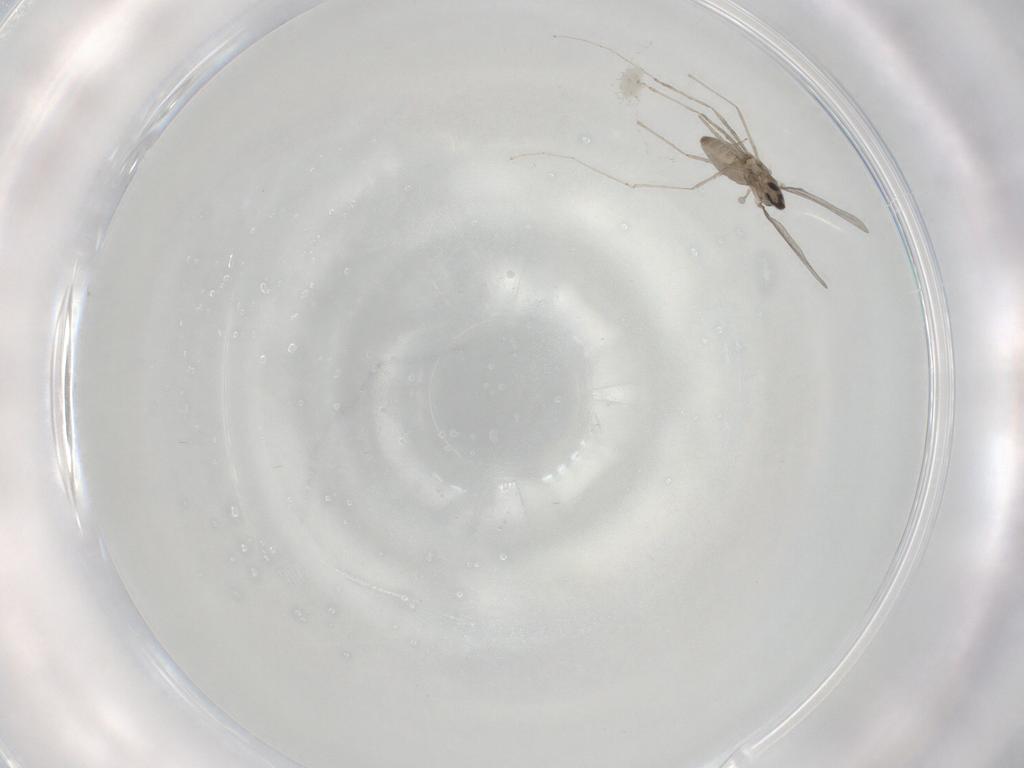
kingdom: Animalia
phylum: Arthropoda
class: Insecta
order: Diptera
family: Cecidomyiidae
